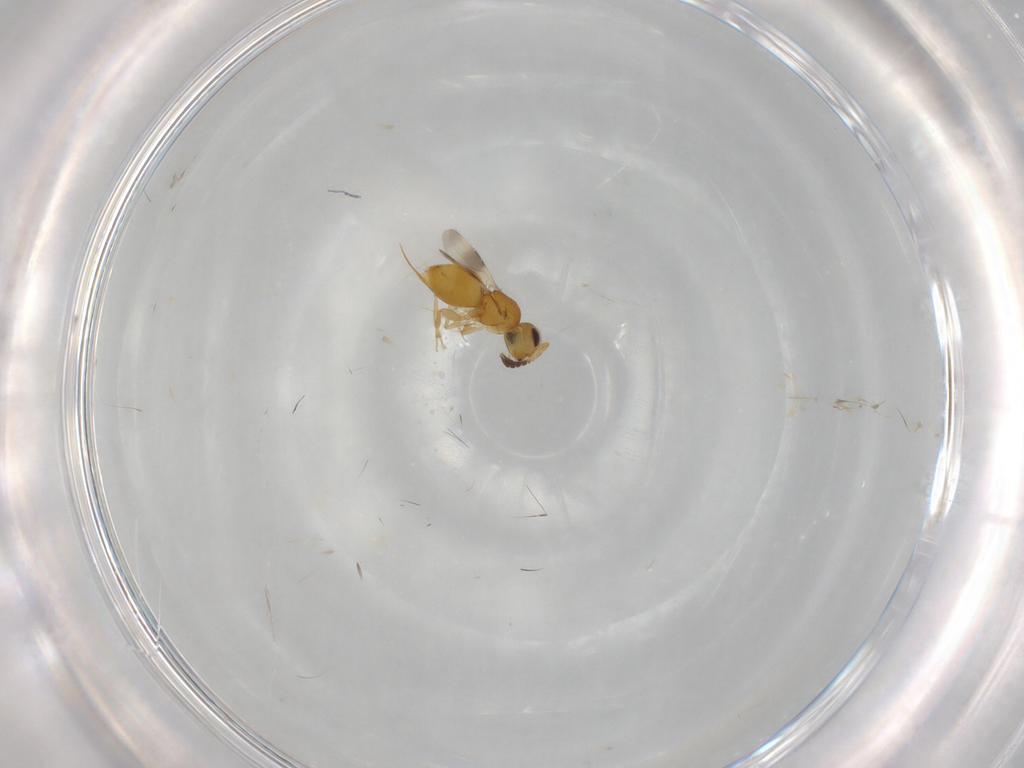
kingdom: Animalia
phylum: Arthropoda
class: Insecta
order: Hymenoptera
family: Ceraphronidae
